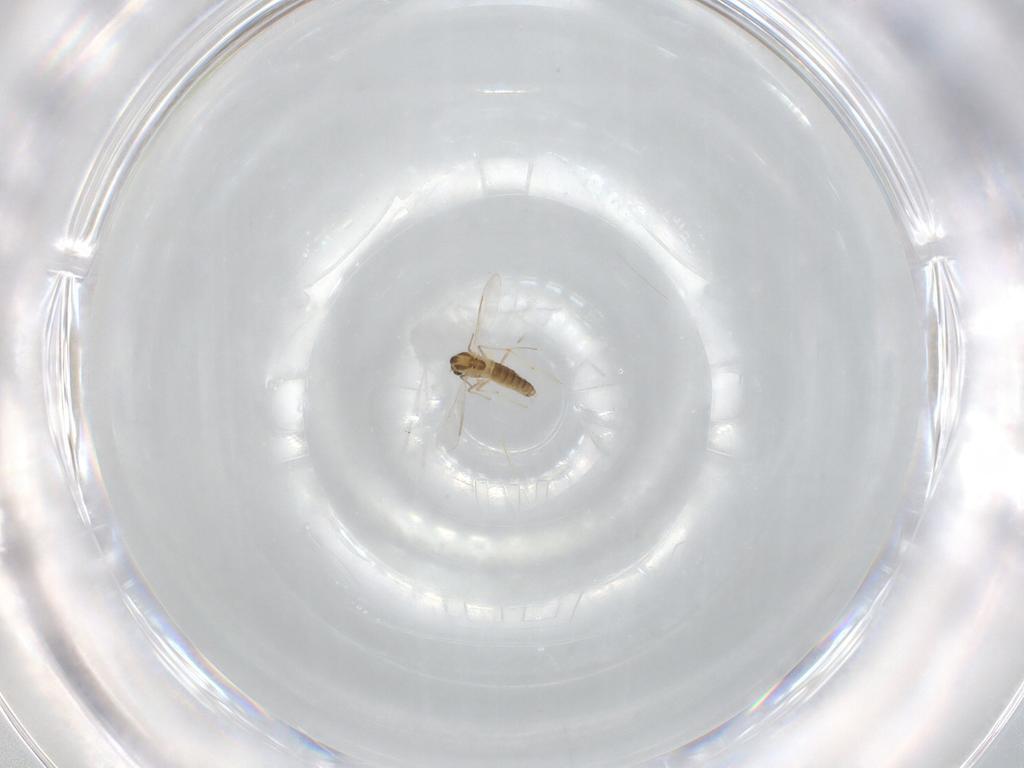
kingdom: Animalia
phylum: Arthropoda
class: Insecta
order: Diptera
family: Chironomidae
